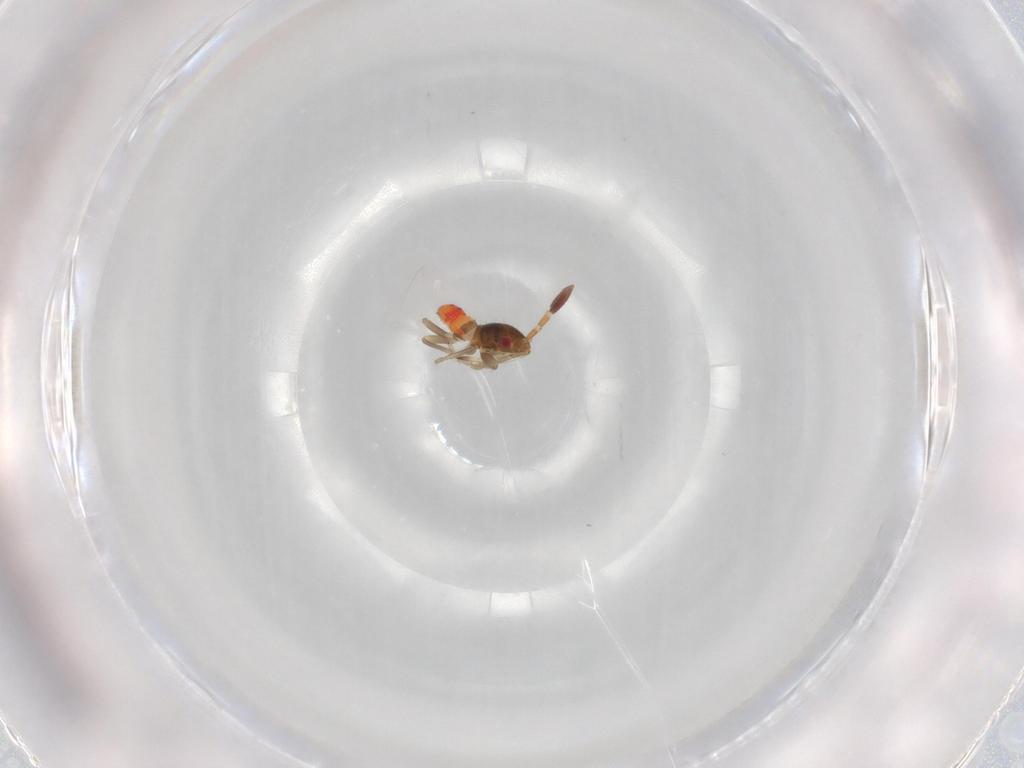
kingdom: Animalia
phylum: Arthropoda
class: Insecta
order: Hemiptera
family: Rhyparochromidae
